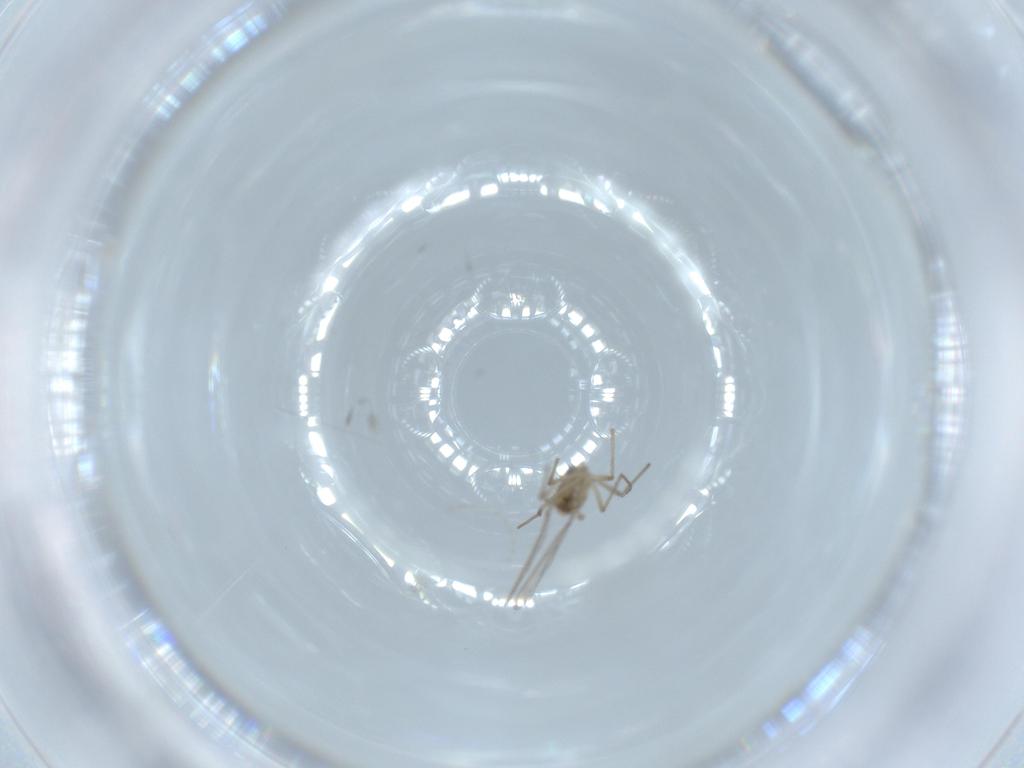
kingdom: Animalia
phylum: Arthropoda
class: Insecta
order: Diptera
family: Chironomidae
